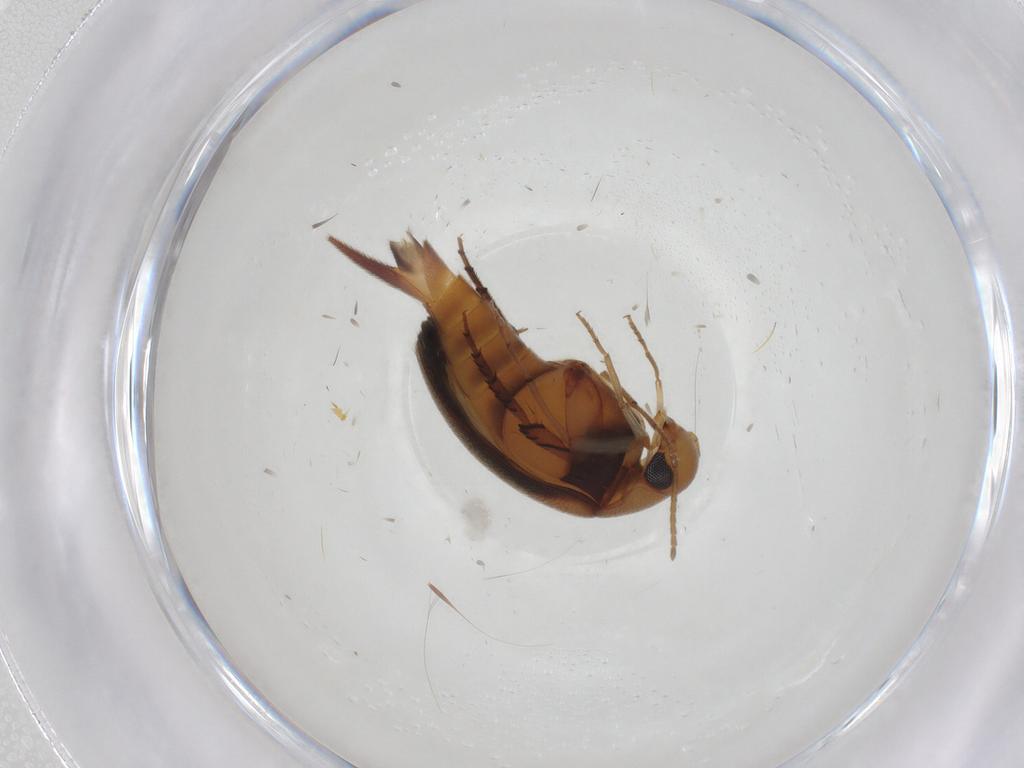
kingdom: Animalia
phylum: Arthropoda
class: Insecta
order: Coleoptera
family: Mordellidae
